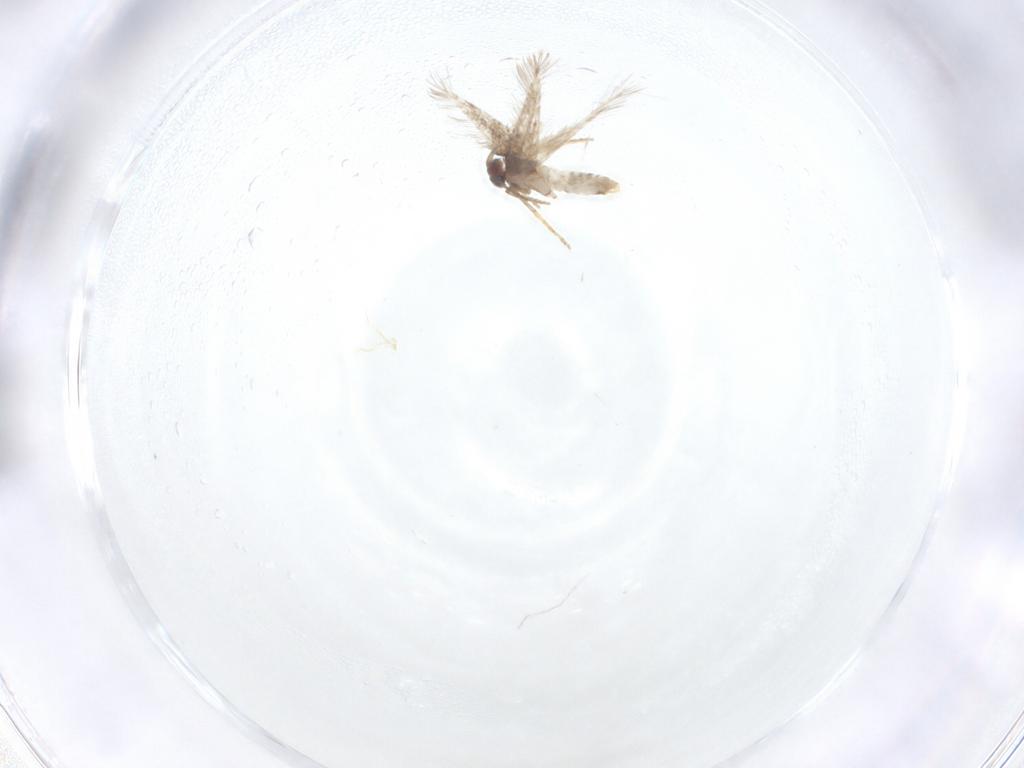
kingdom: Animalia
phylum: Arthropoda
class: Insecta
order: Lepidoptera
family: Nepticulidae
